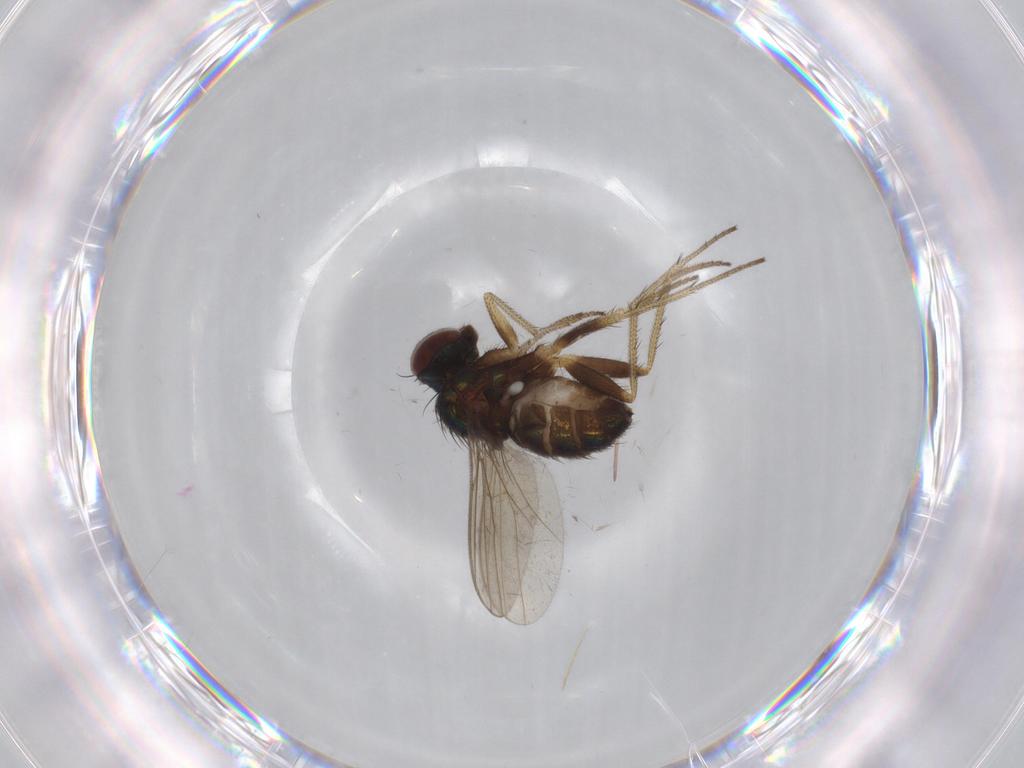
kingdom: Animalia
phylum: Arthropoda
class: Insecta
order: Diptera
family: Dolichopodidae
